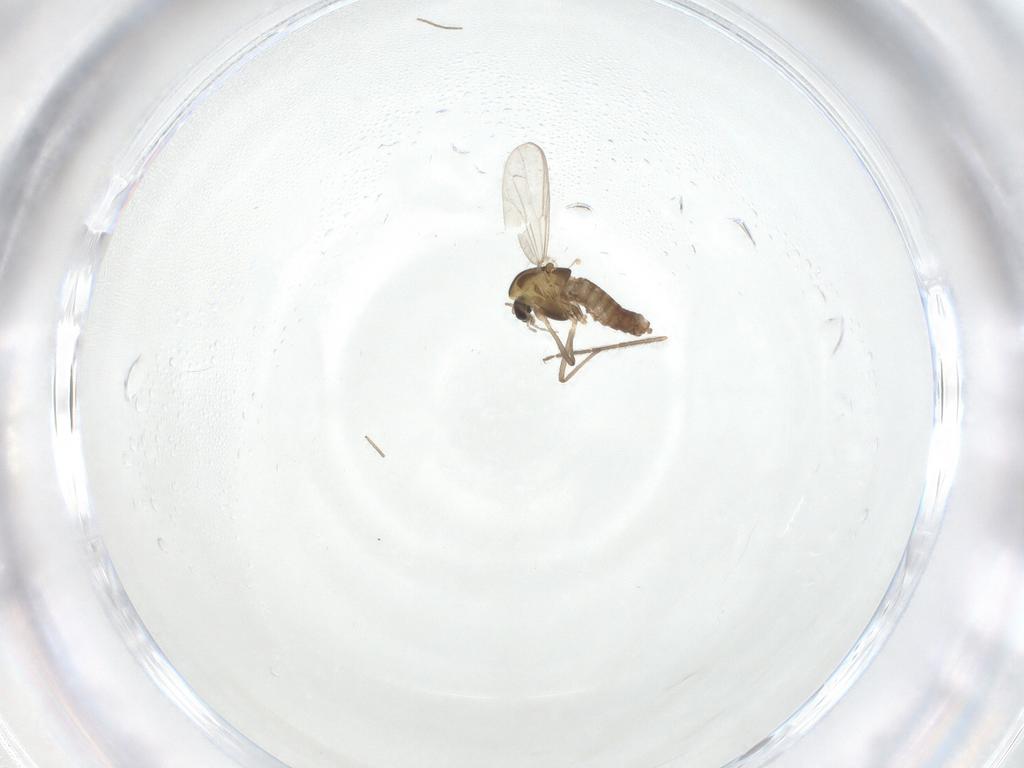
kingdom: Animalia
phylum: Arthropoda
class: Insecta
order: Diptera
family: Chironomidae
